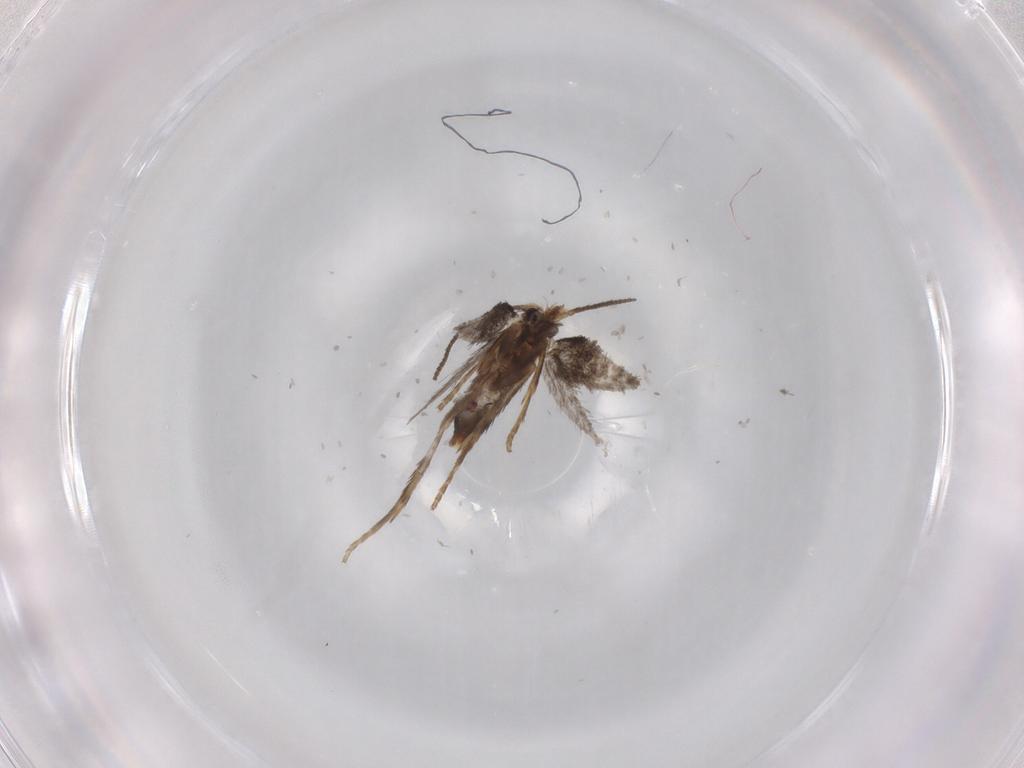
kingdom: Animalia
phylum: Arthropoda
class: Insecta
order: Lepidoptera
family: Nepticulidae
